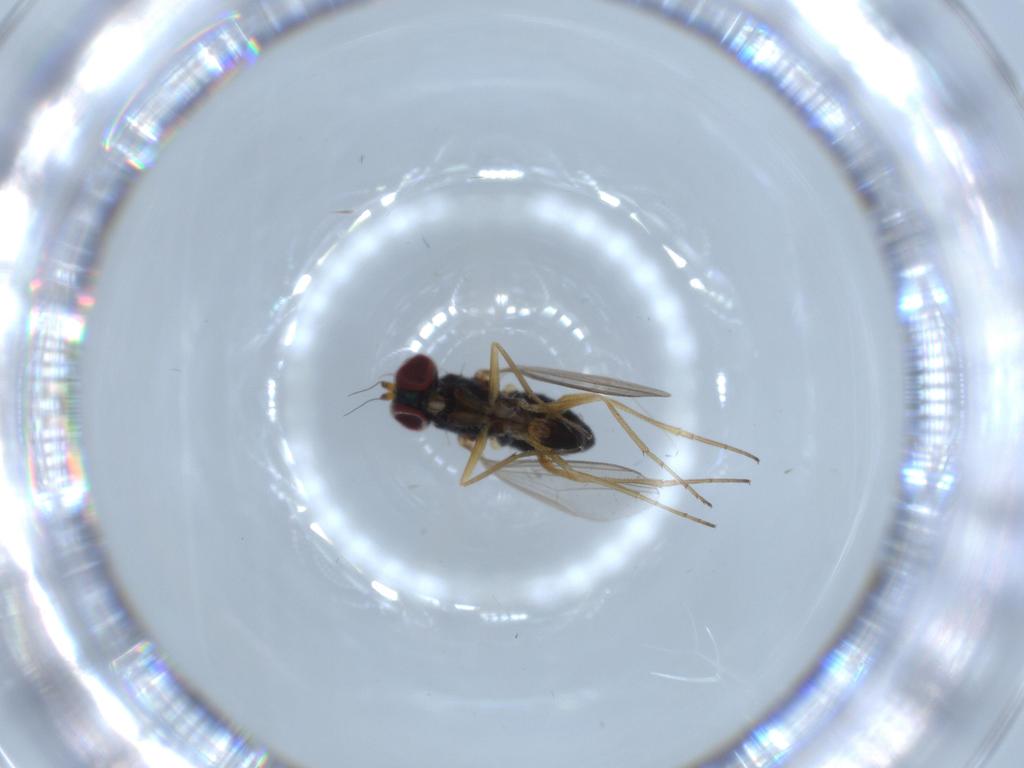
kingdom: Animalia
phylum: Arthropoda
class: Insecta
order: Diptera
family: Dolichopodidae
